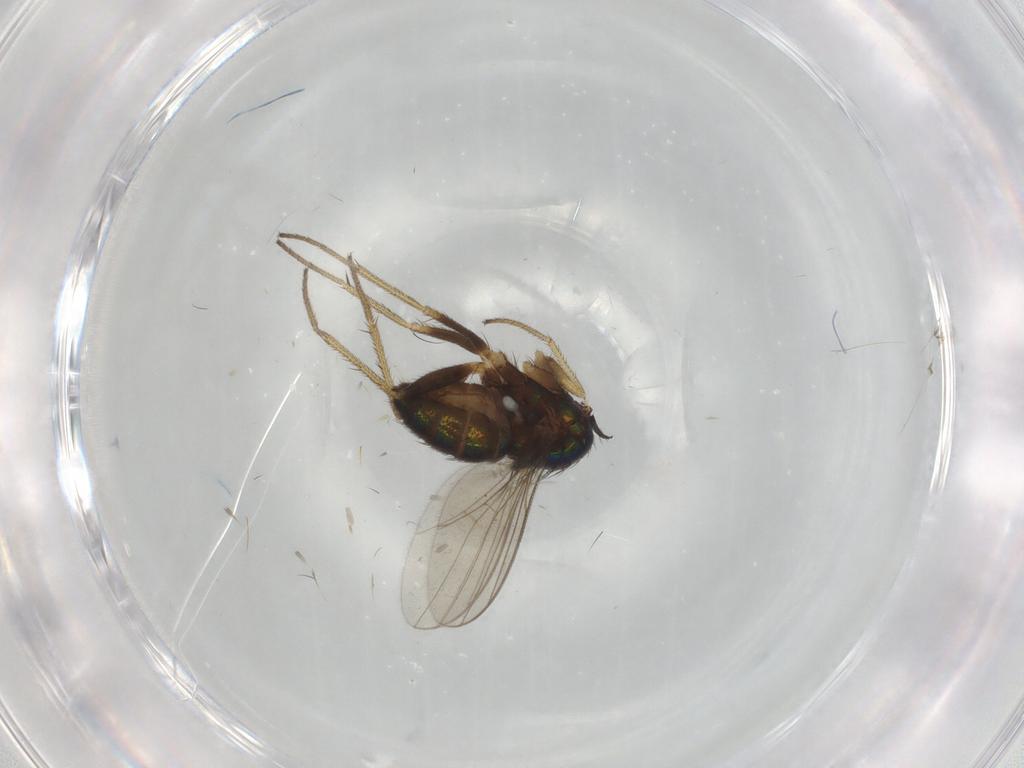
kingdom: Animalia
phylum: Arthropoda
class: Insecta
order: Diptera
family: Dolichopodidae
